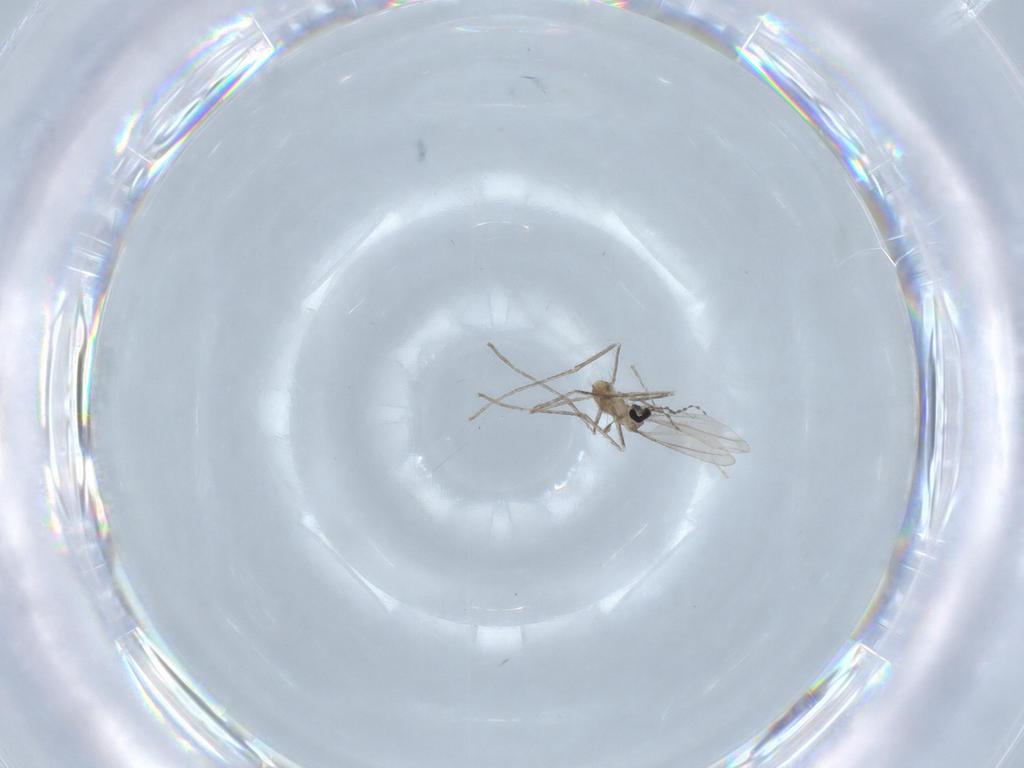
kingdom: Animalia
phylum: Arthropoda
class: Insecta
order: Diptera
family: Cecidomyiidae
